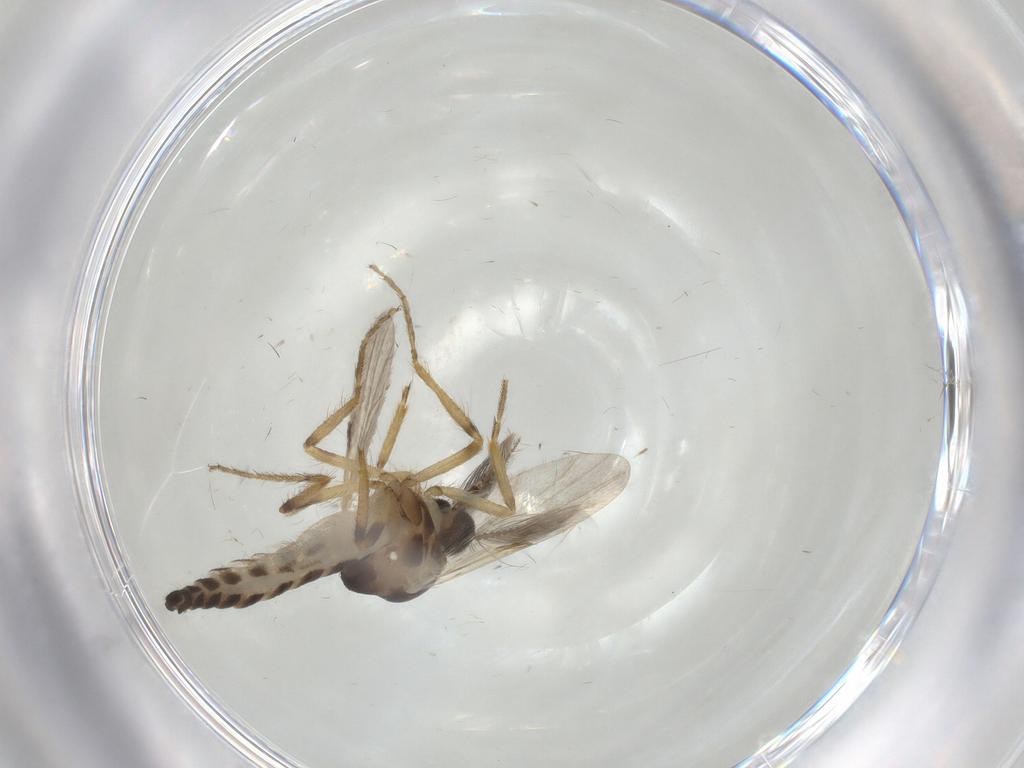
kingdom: Animalia
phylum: Arthropoda
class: Insecta
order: Diptera
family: Ceratopogonidae
